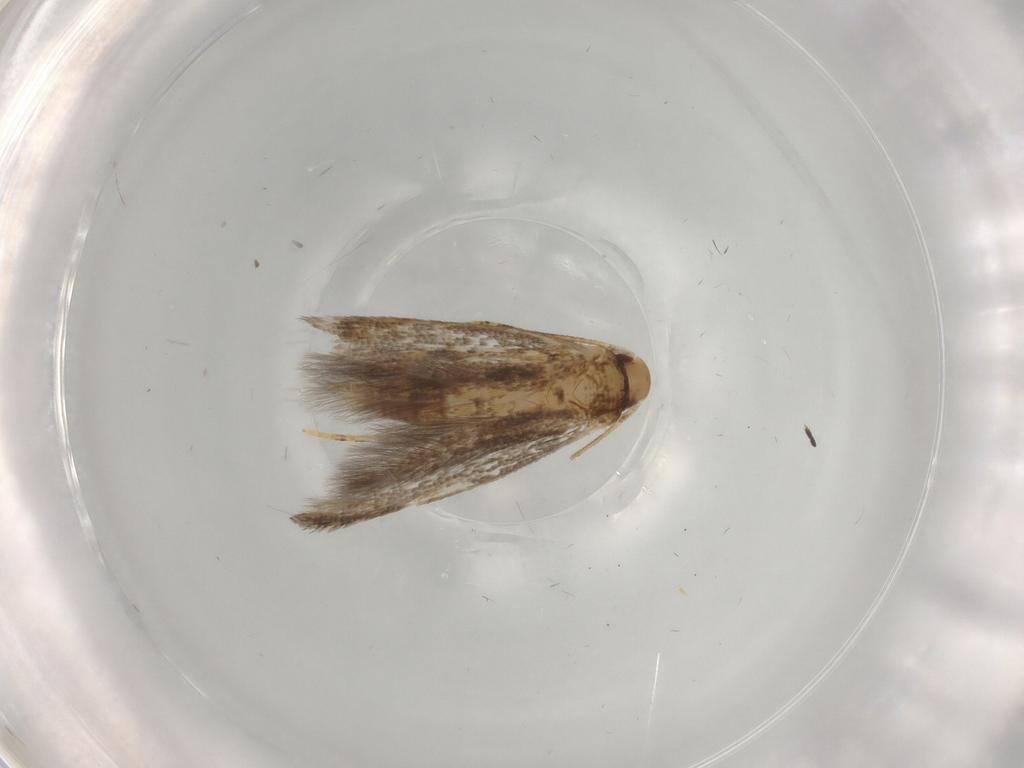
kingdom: Animalia
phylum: Arthropoda
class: Insecta
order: Lepidoptera
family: Momphidae
